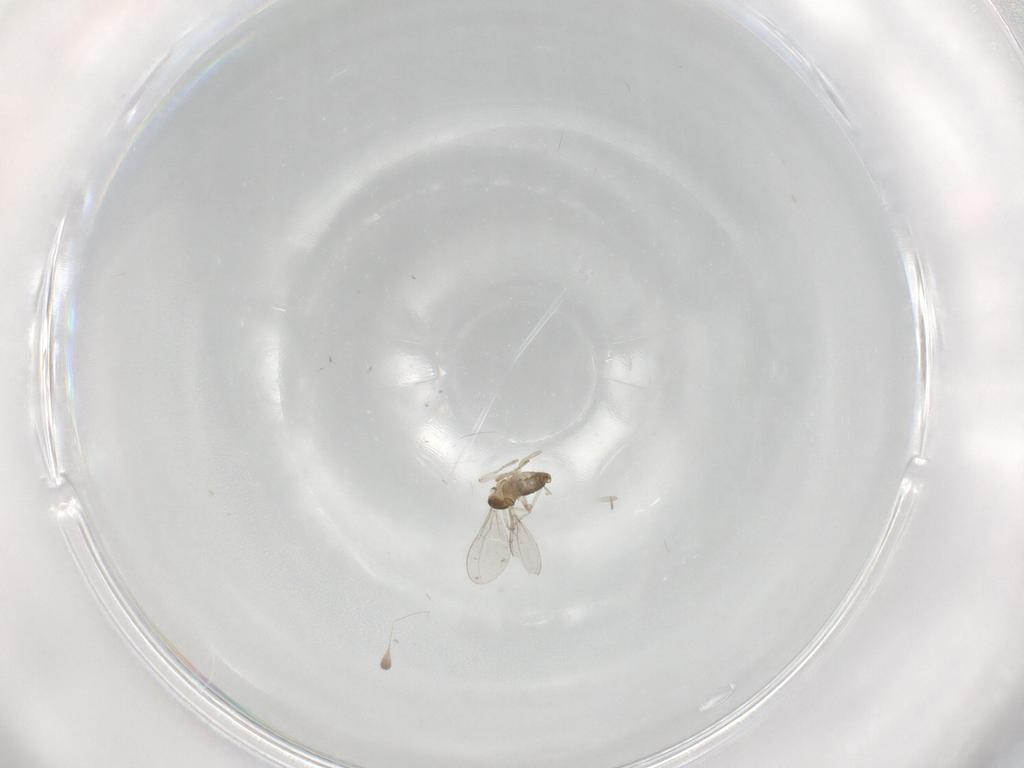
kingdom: Animalia
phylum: Arthropoda
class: Insecta
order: Diptera
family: Cecidomyiidae
